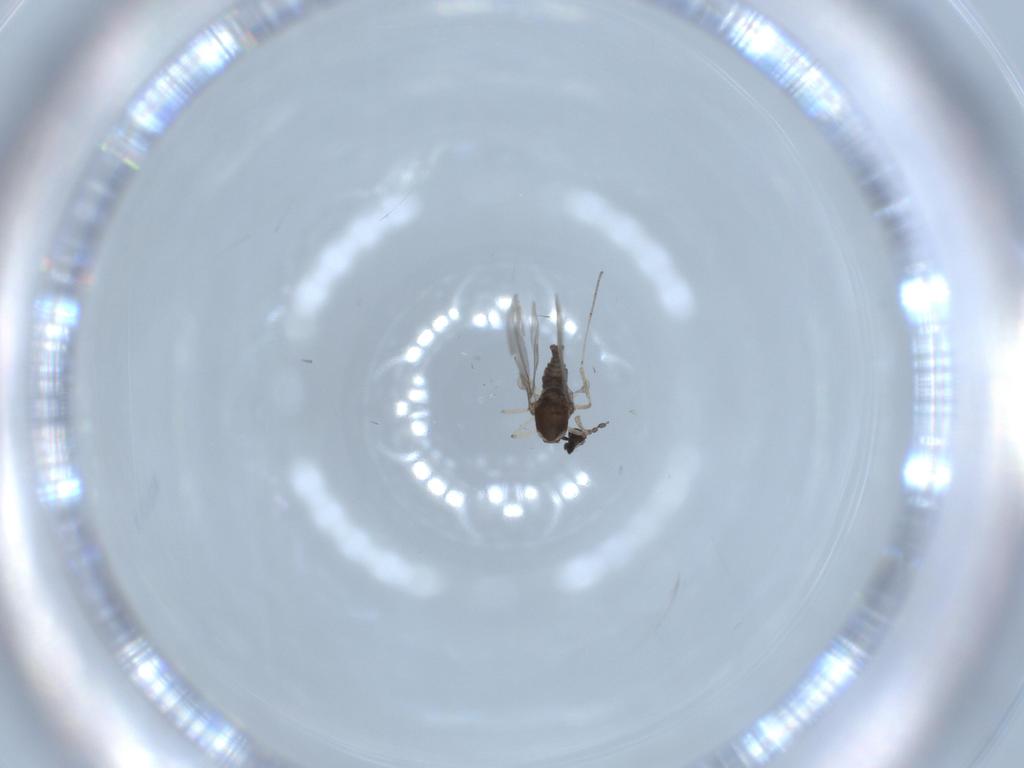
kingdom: Animalia
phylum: Arthropoda
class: Insecta
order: Diptera
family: Cecidomyiidae
